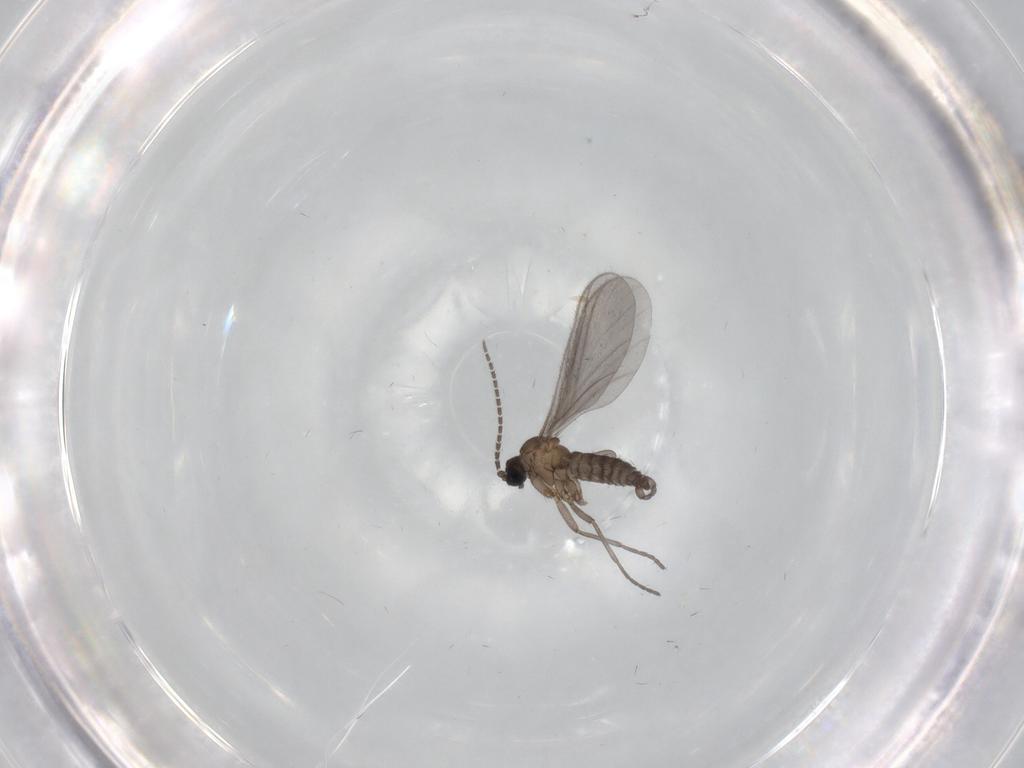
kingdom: Animalia
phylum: Arthropoda
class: Insecta
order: Diptera
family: Sciaridae
